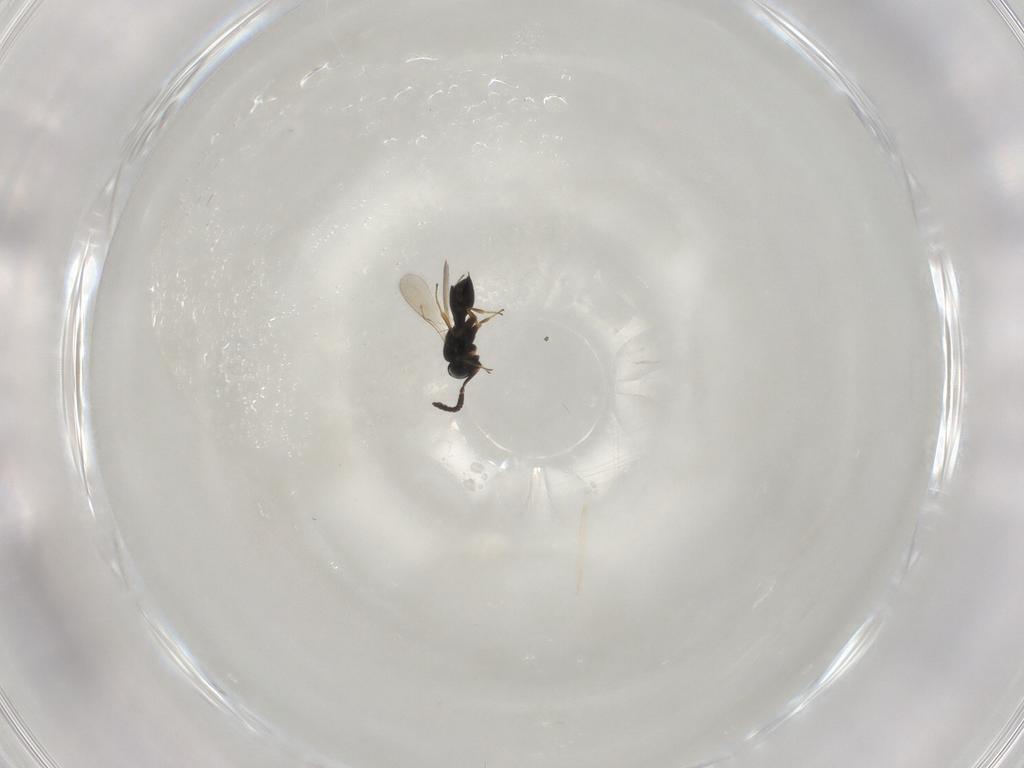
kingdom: Animalia
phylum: Arthropoda
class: Insecta
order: Hymenoptera
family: Scelionidae
